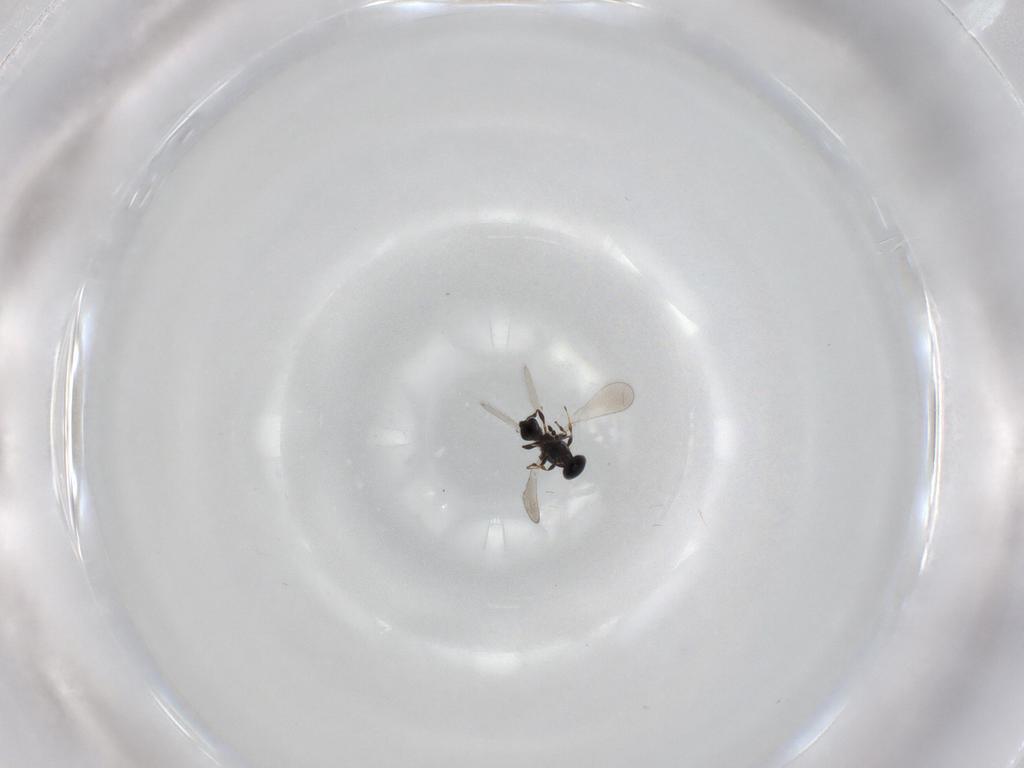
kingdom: Animalia
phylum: Arthropoda
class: Insecta
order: Hymenoptera
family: Platygastridae
